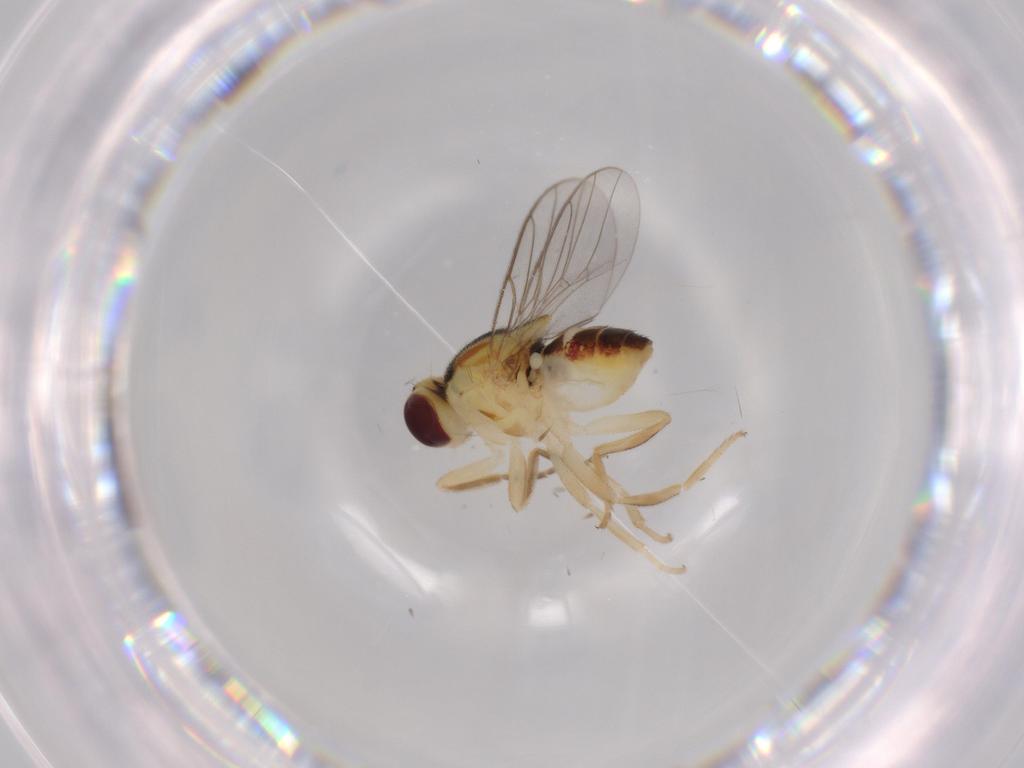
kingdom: Animalia
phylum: Arthropoda
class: Insecta
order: Diptera
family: Chloropidae
